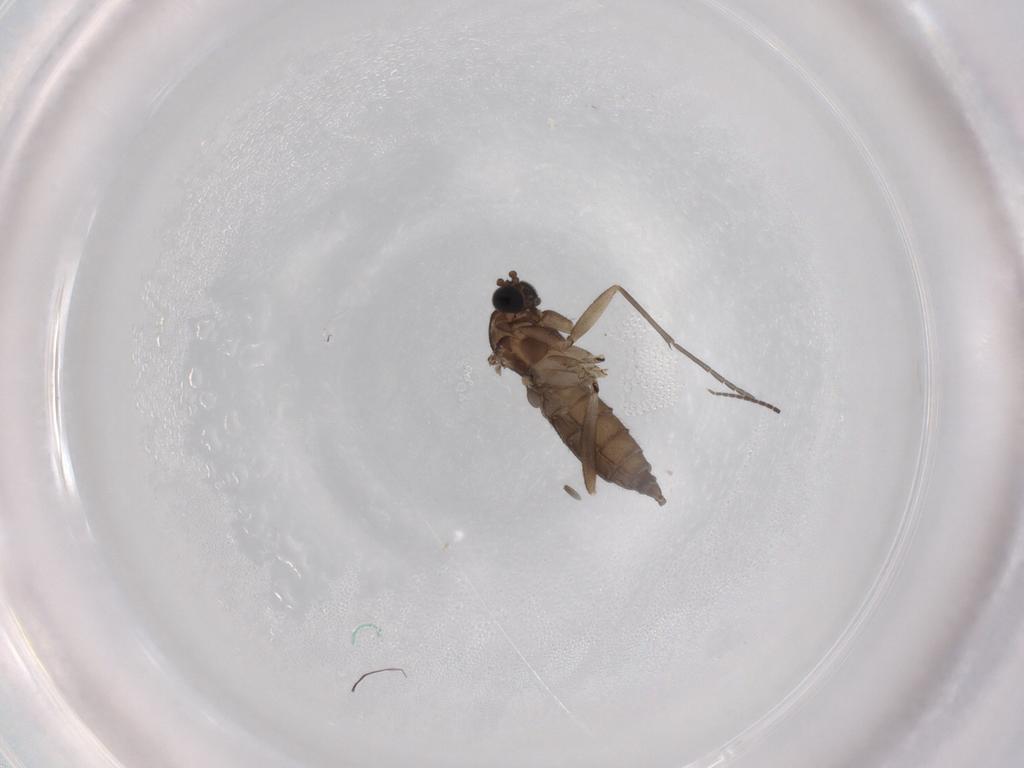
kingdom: Animalia
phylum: Arthropoda
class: Insecta
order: Diptera
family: Sciaridae
